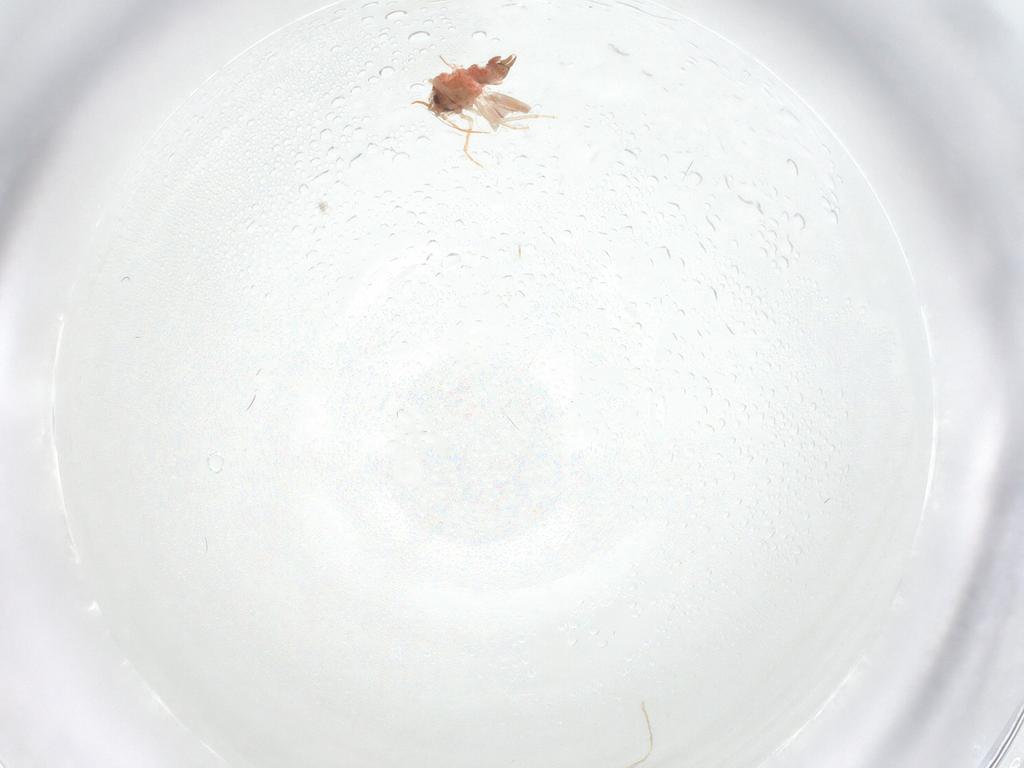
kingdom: Animalia
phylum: Arthropoda
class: Insecta
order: Hemiptera
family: Aleyrodidae
